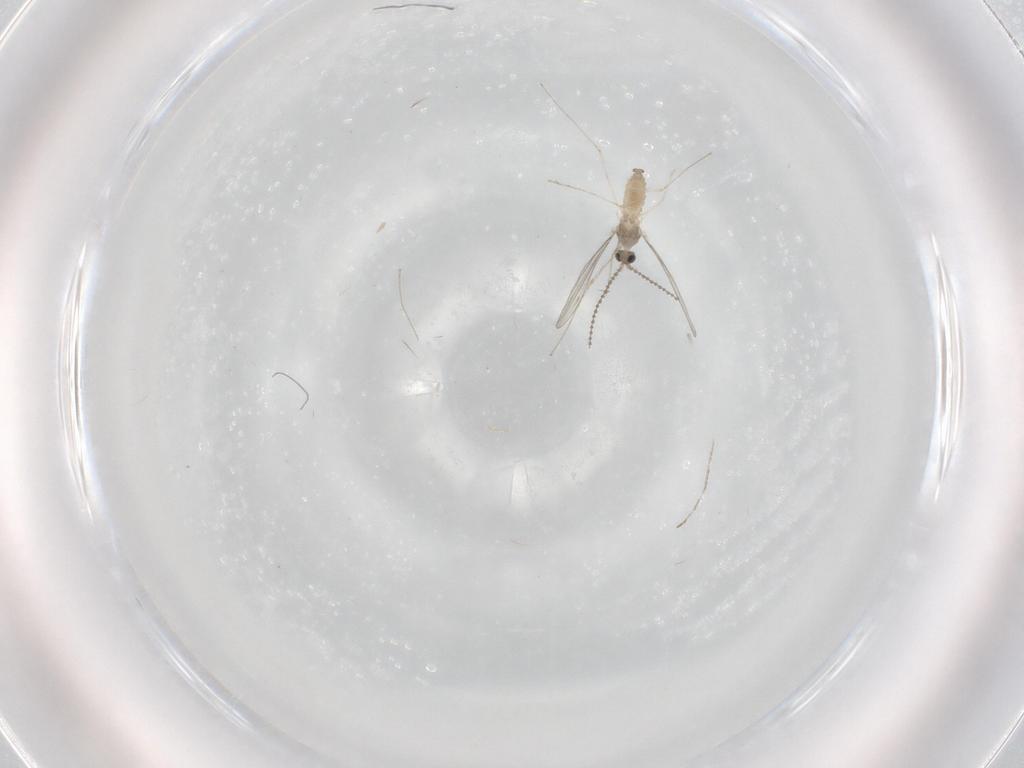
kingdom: Animalia
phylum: Arthropoda
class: Insecta
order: Diptera
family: Cecidomyiidae
